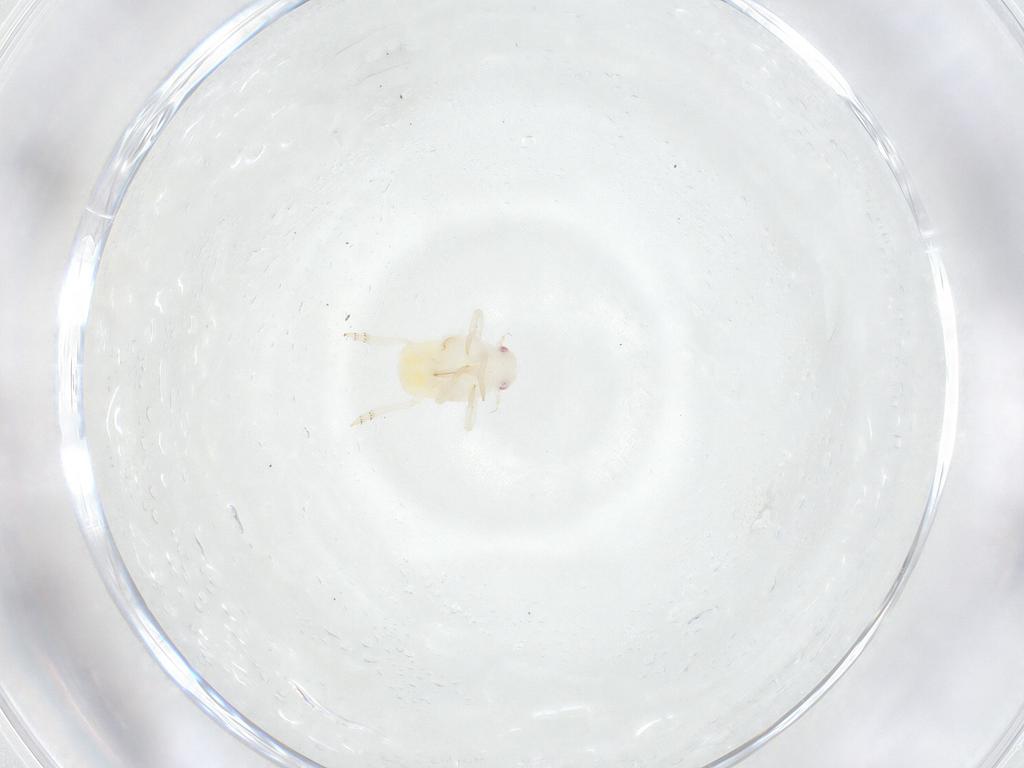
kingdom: Animalia
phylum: Arthropoda
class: Insecta
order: Hemiptera
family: Flatidae
